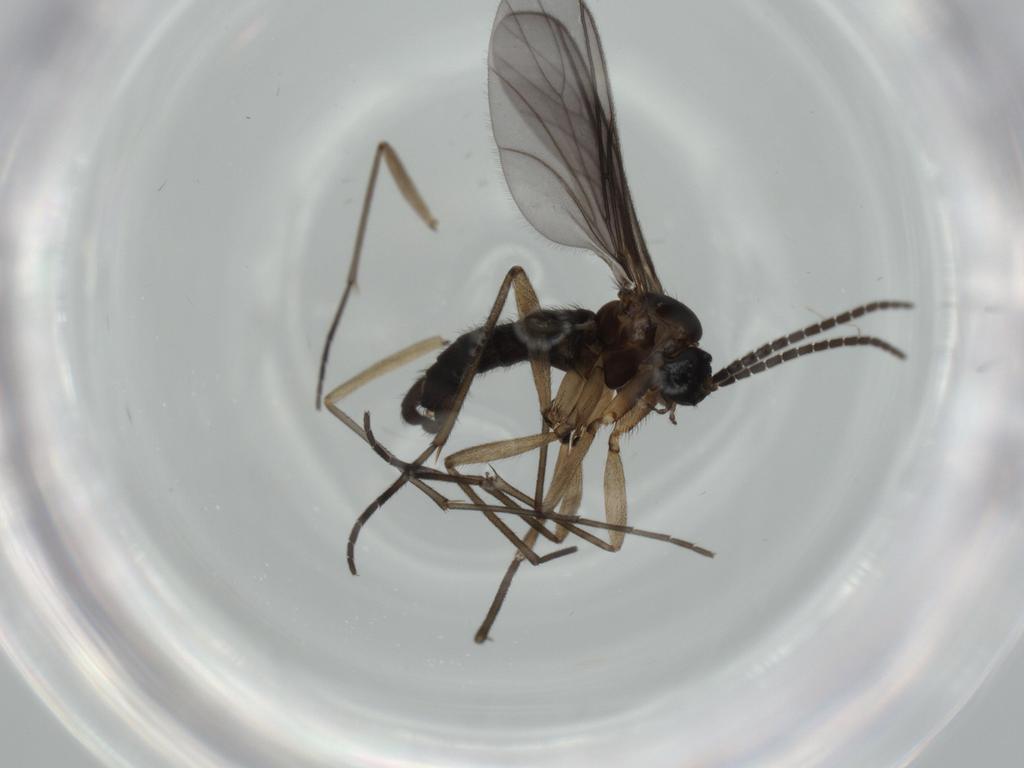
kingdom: Animalia
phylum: Arthropoda
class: Insecta
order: Diptera
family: Sciaridae
